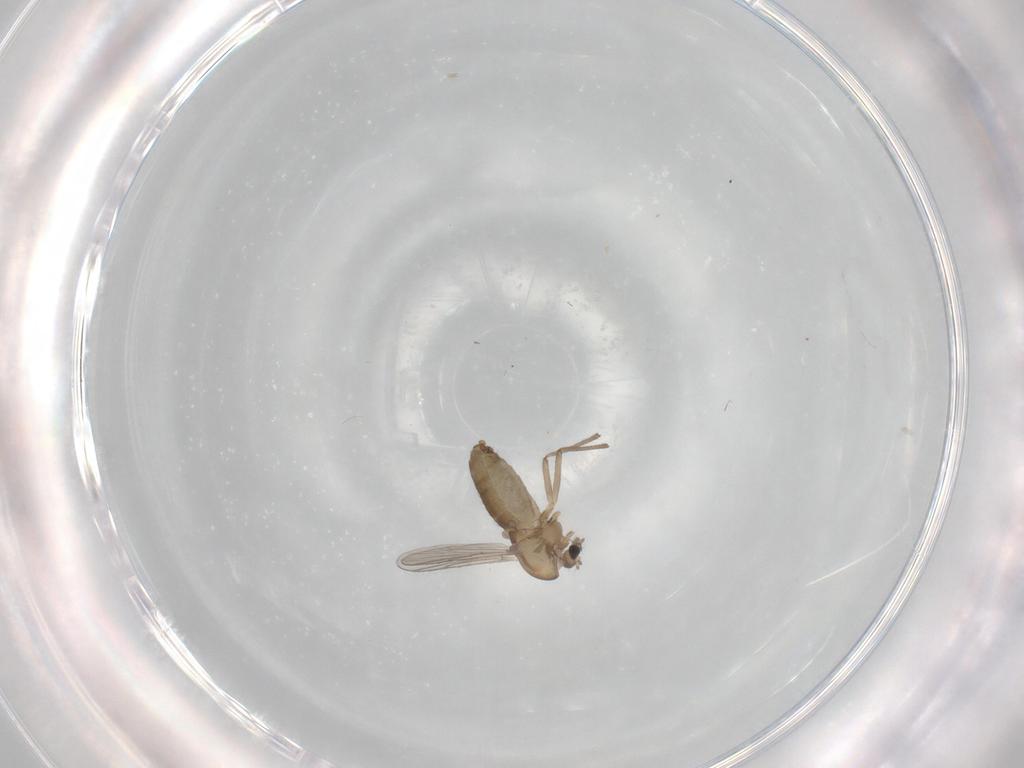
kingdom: Animalia
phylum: Arthropoda
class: Insecta
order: Diptera
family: Chironomidae
